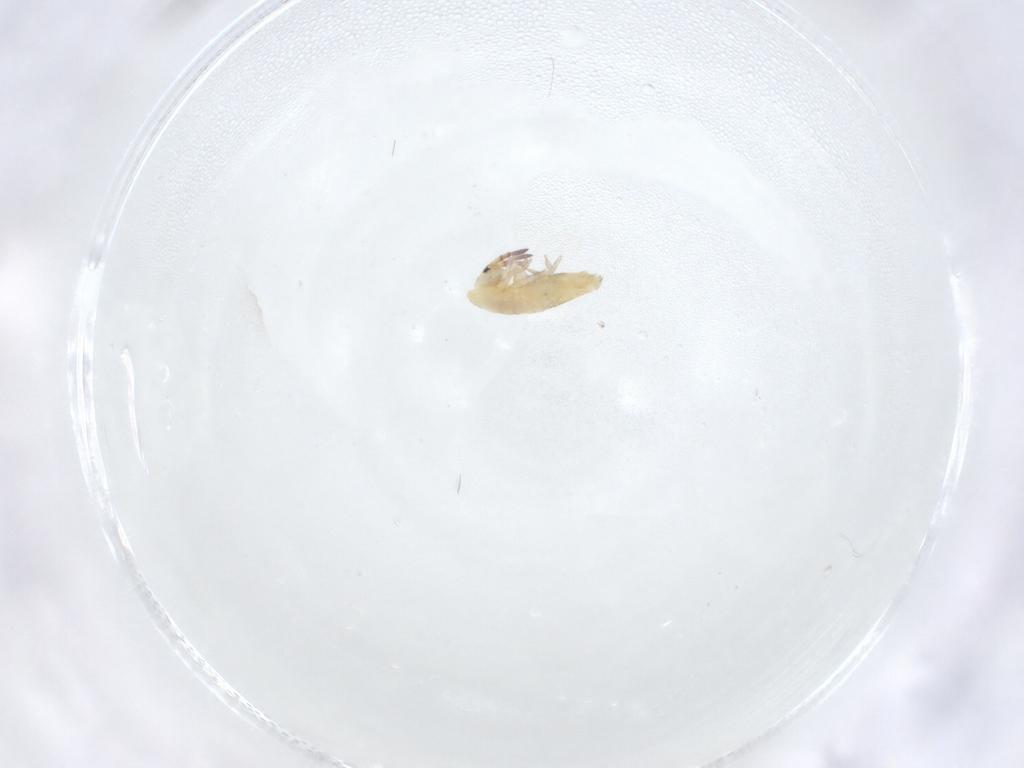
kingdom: Animalia
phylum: Arthropoda
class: Collembola
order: Entomobryomorpha
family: Entomobryidae
